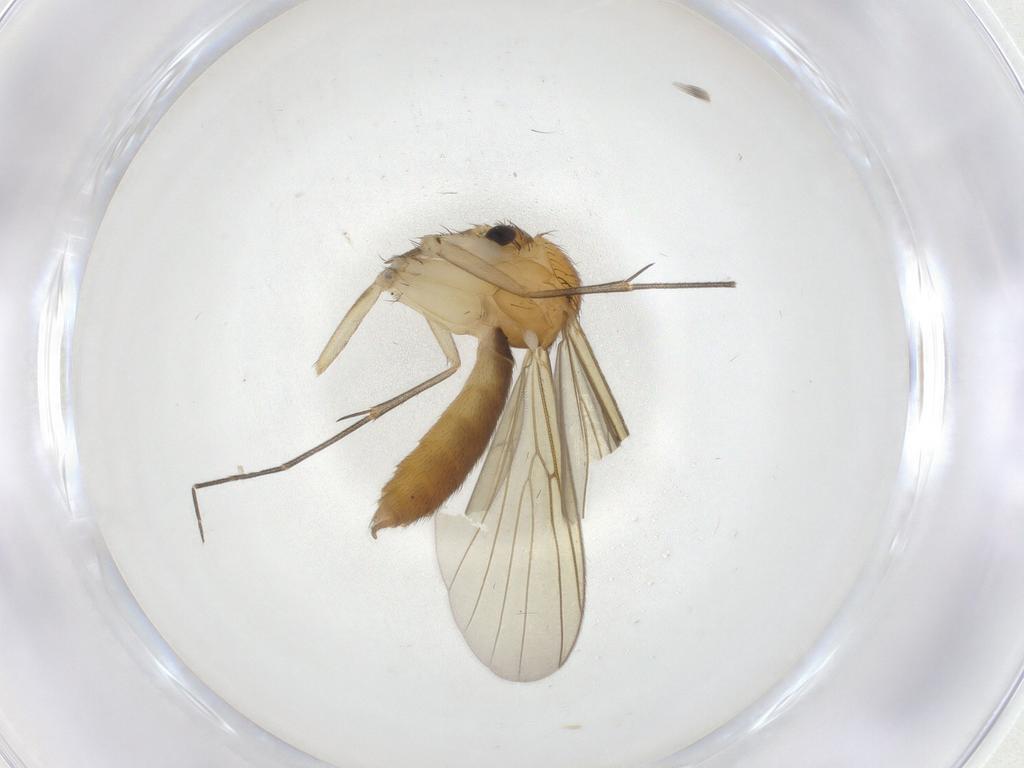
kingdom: Animalia
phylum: Arthropoda
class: Insecta
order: Diptera
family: Mycetophilidae
